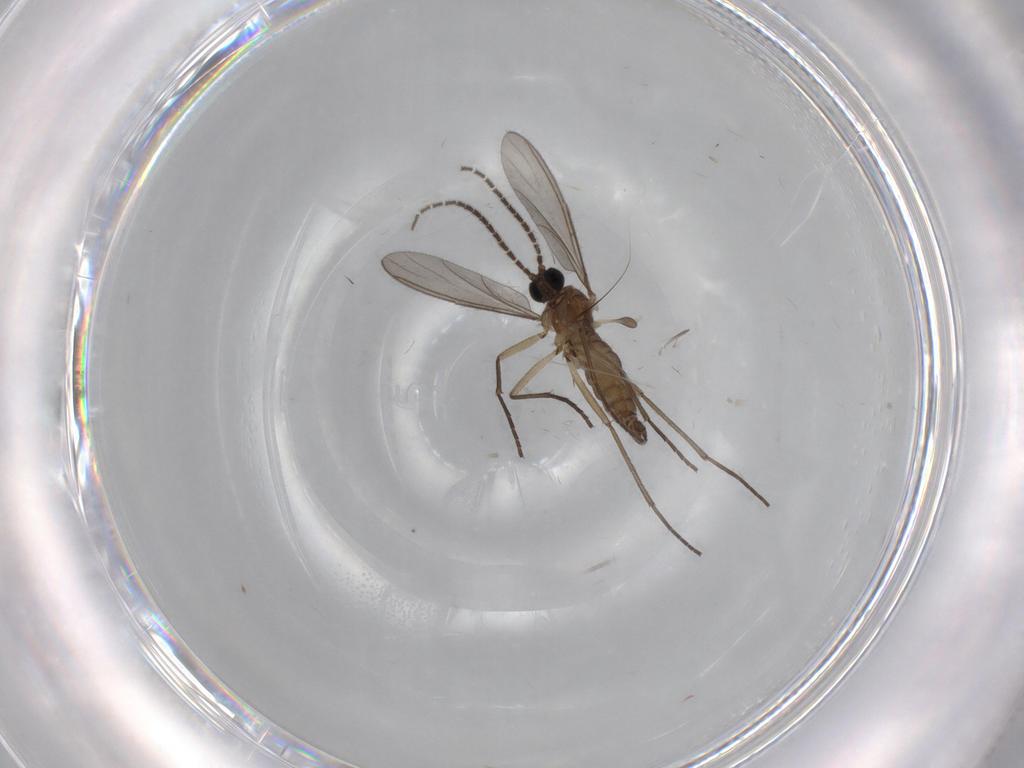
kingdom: Animalia
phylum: Arthropoda
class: Insecta
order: Diptera
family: Sciaridae
